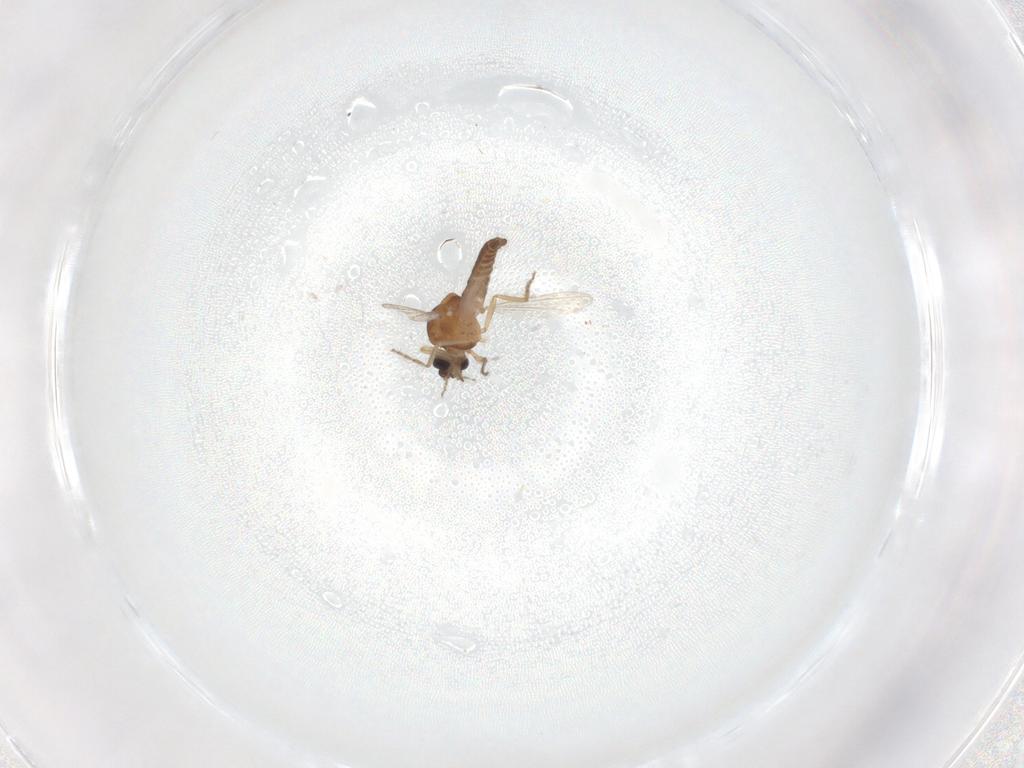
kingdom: Animalia
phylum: Arthropoda
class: Insecta
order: Diptera
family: Ceratopogonidae
